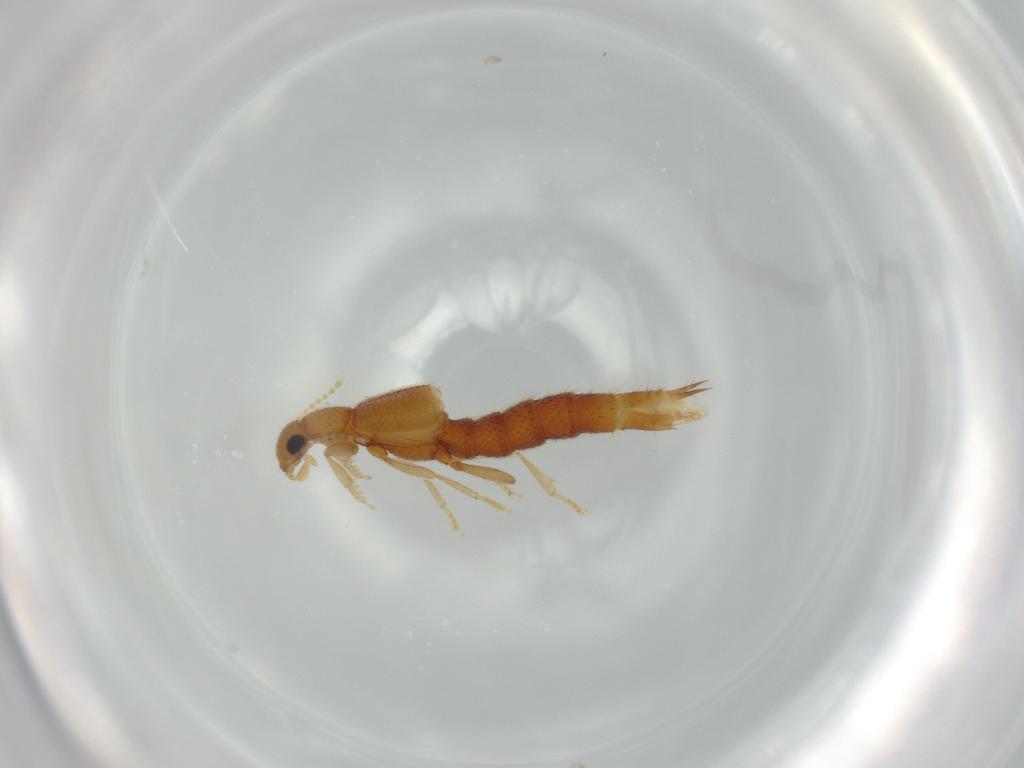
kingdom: Animalia
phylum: Arthropoda
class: Insecta
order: Coleoptera
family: Staphylinidae
